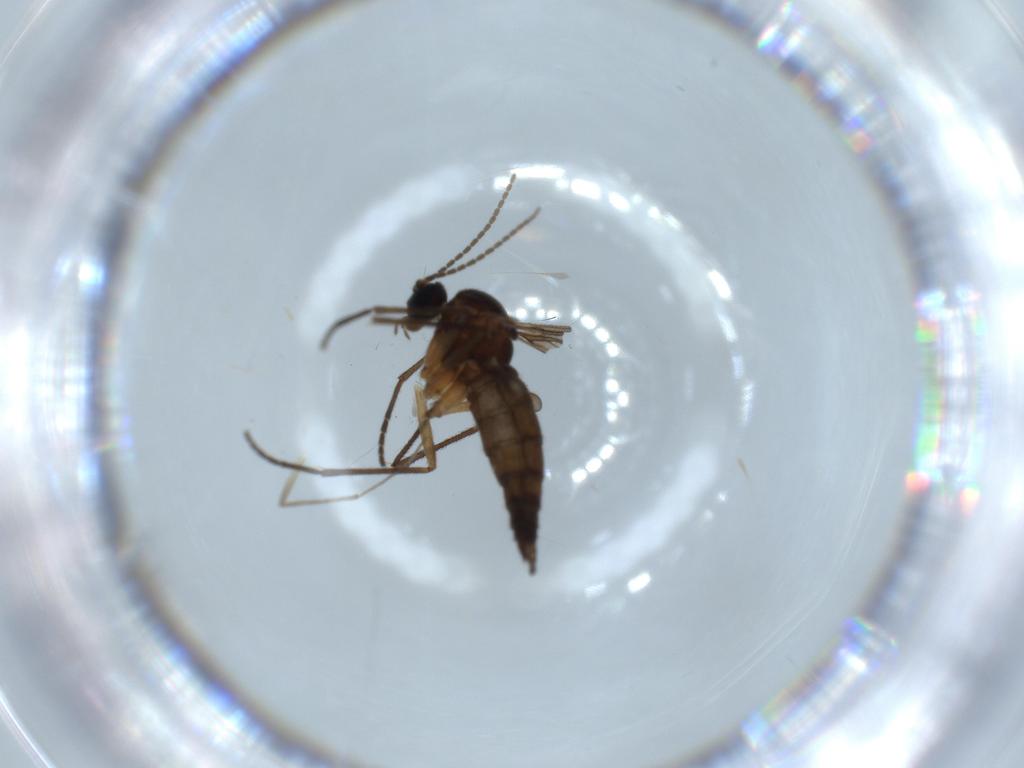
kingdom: Animalia
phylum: Arthropoda
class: Insecta
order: Diptera
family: Sciaridae
